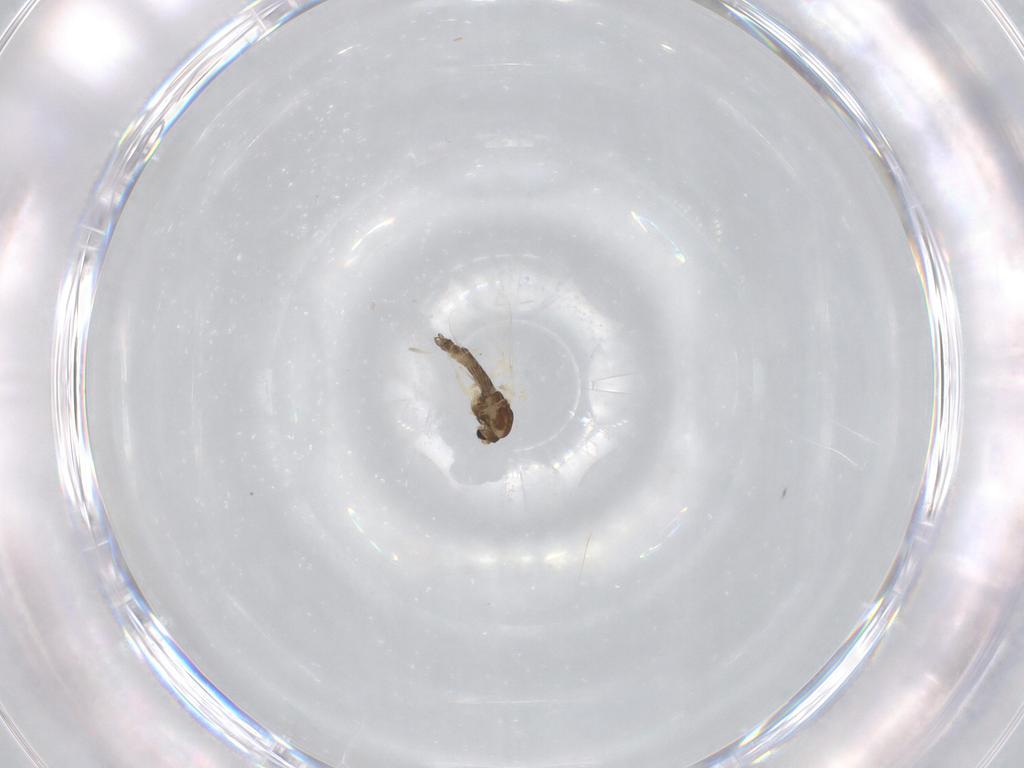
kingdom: Animalia
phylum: Arthropoda
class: Insecta
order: Diptera
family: Chironomidae
